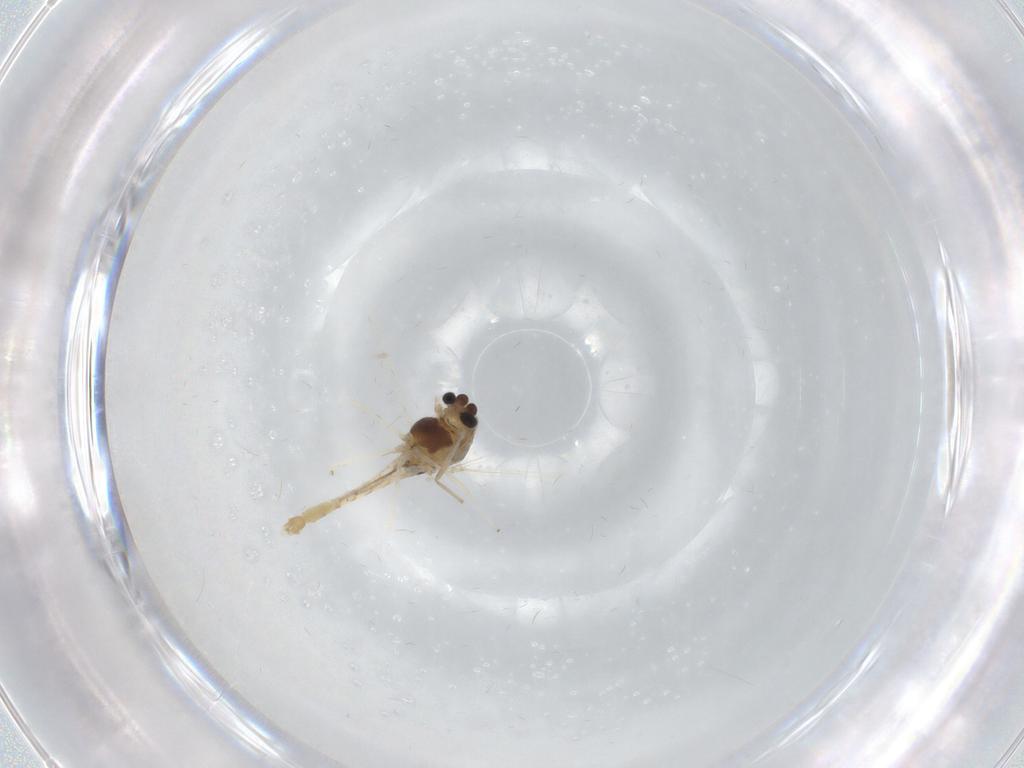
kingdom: Animalia
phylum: Arthropoda
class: Insecta
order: Diptera
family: Chironomidae
